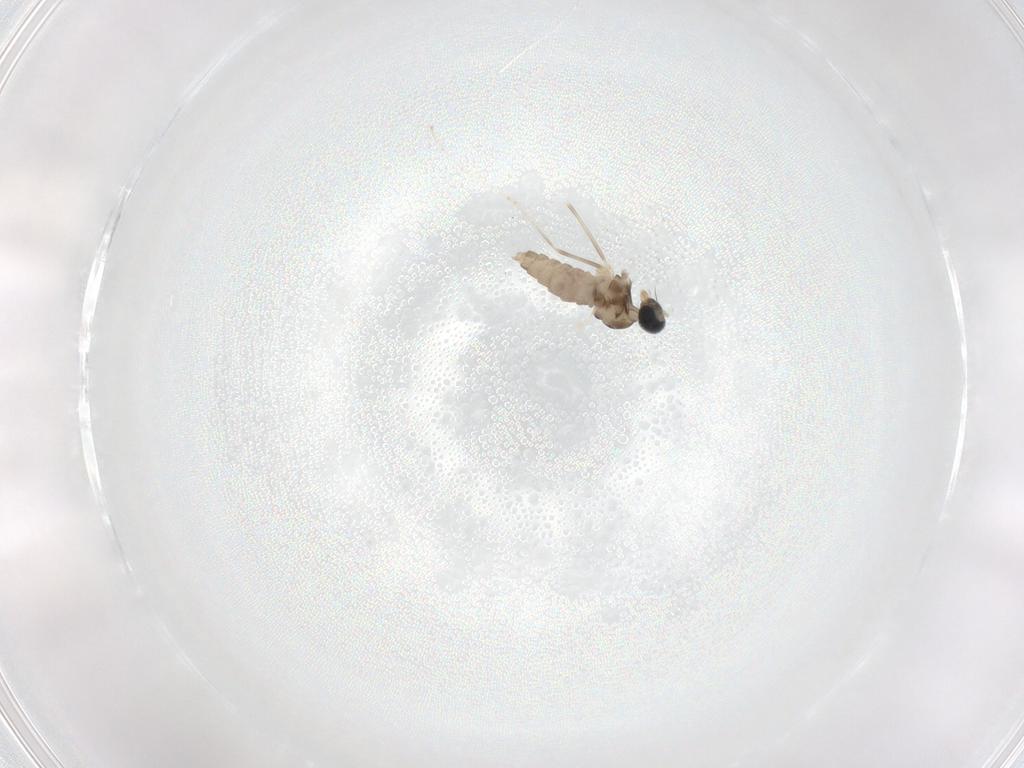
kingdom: Animalia
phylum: Arthropoda
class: Insecta
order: Diptera
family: Cecidomyiidae
